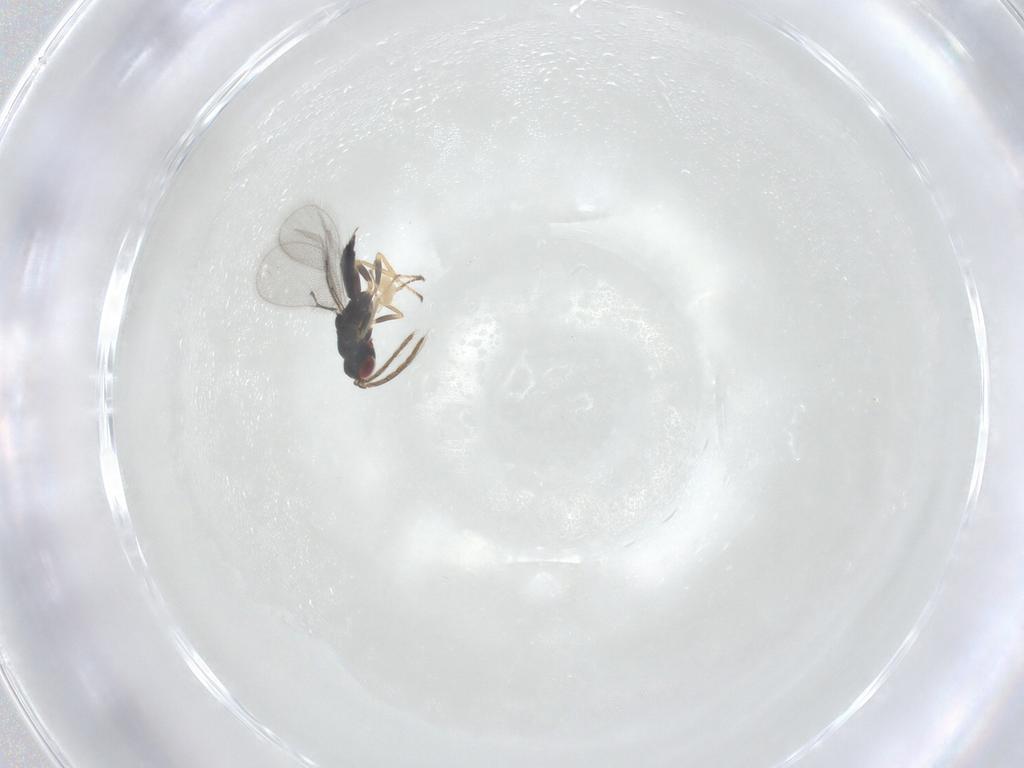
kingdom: Animalia
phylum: Arthropoda
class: Insecta
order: Hymenoptera
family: Eulophidae
